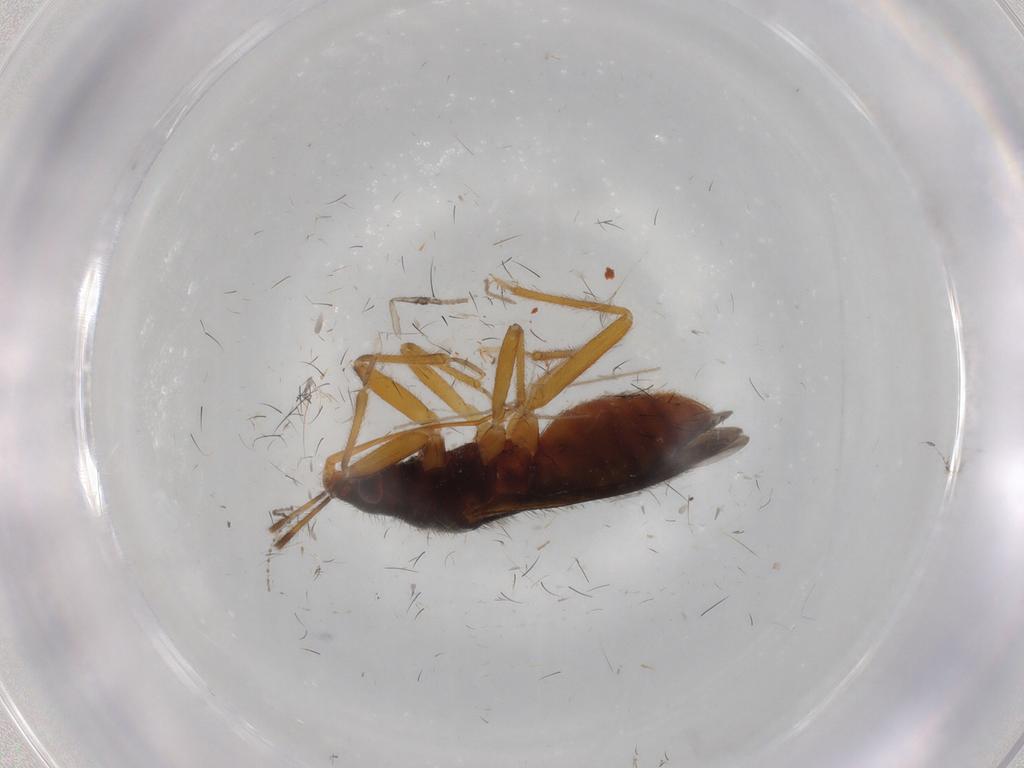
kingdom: Animalia
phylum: Arthropoda
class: Insecta
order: Hemiptera
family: Anthocoridae
